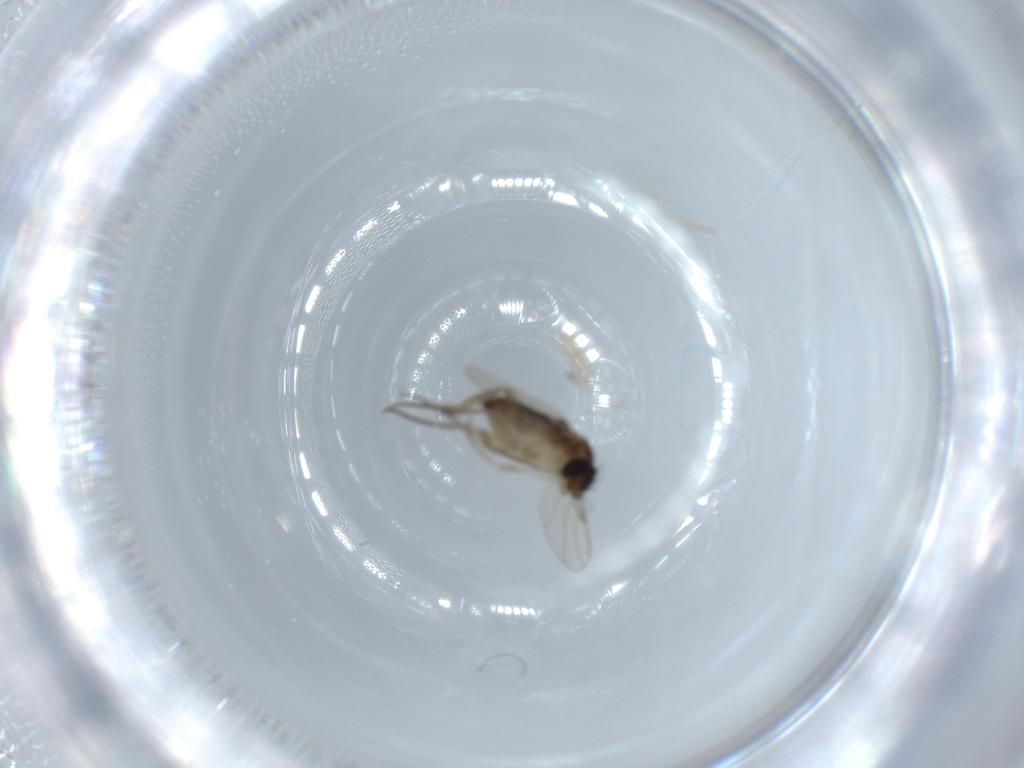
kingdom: Animalia
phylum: Arthropoda
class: Insecta
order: Diptera
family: Phoridae
